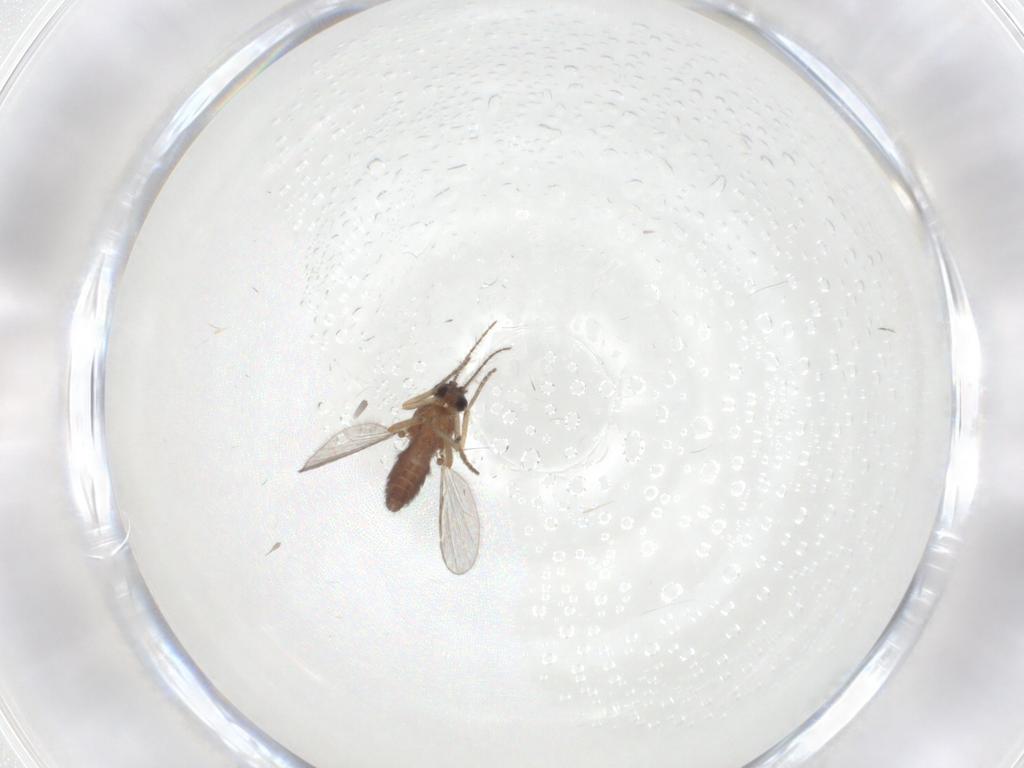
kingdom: Animalia
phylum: Arthropoda
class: Insecta
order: Diptera
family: Ceratopogonidae
